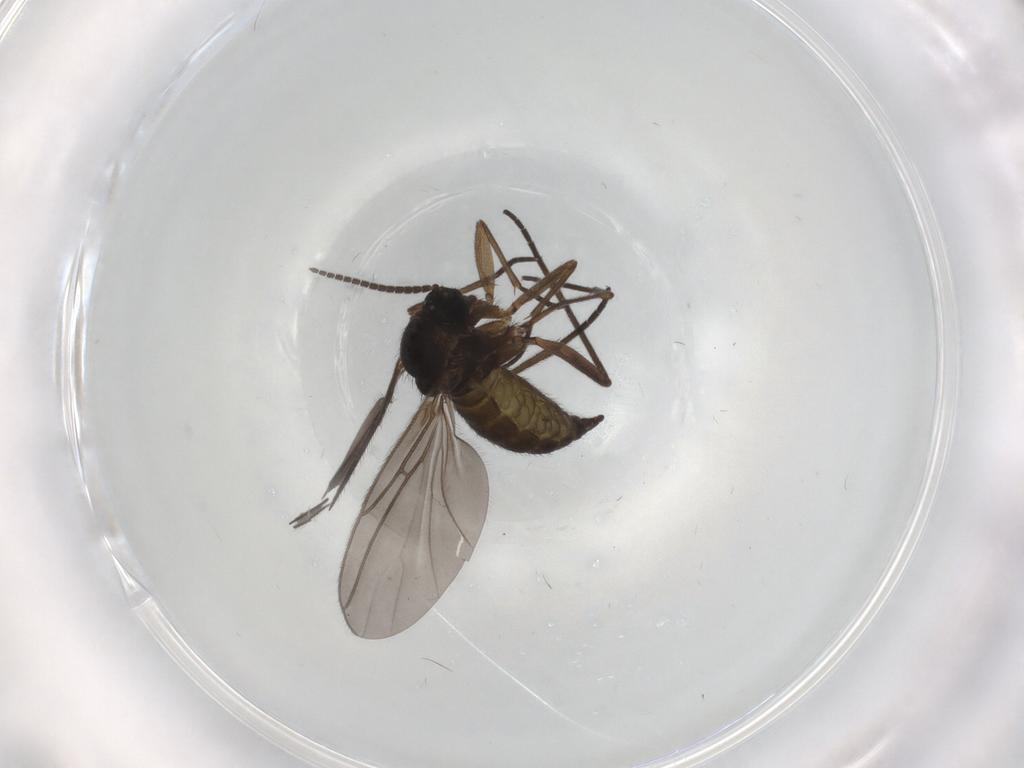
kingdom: Animalia
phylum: Arthropoda
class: Insecta
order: Diptera
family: Sciaridae
